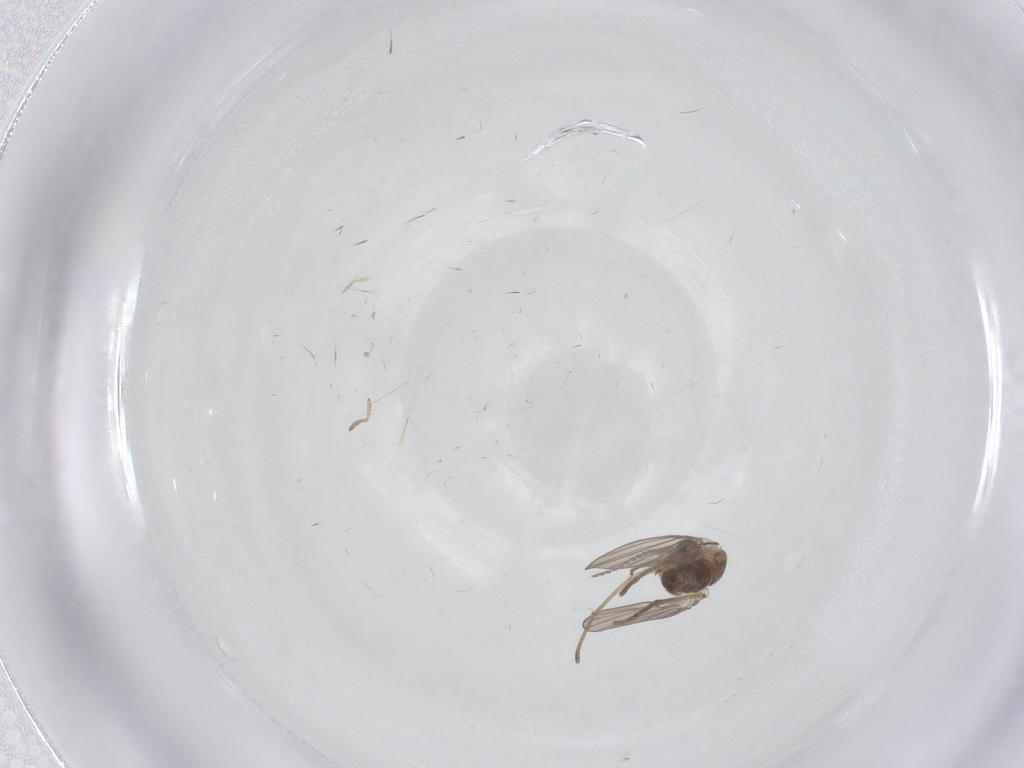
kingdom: Animalia
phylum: Arthropoda
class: Insecta
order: Diptera
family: Sciaridae
